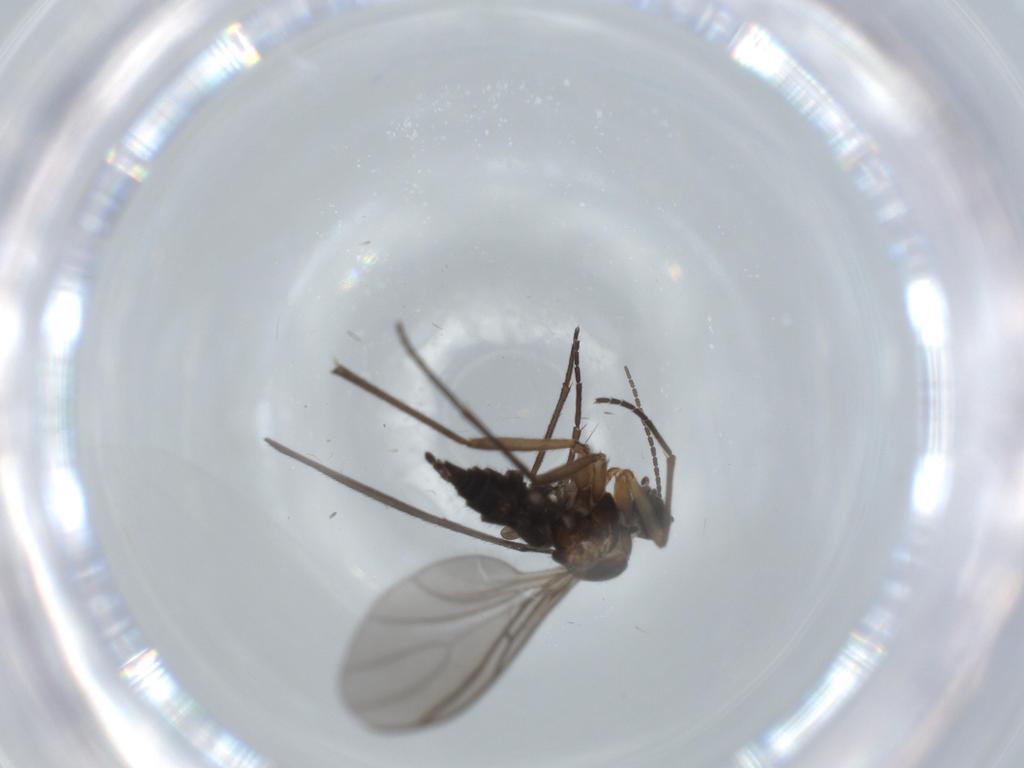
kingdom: Animalia
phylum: Arthropoda
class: Insecta
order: Diptera
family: Sciaridae
